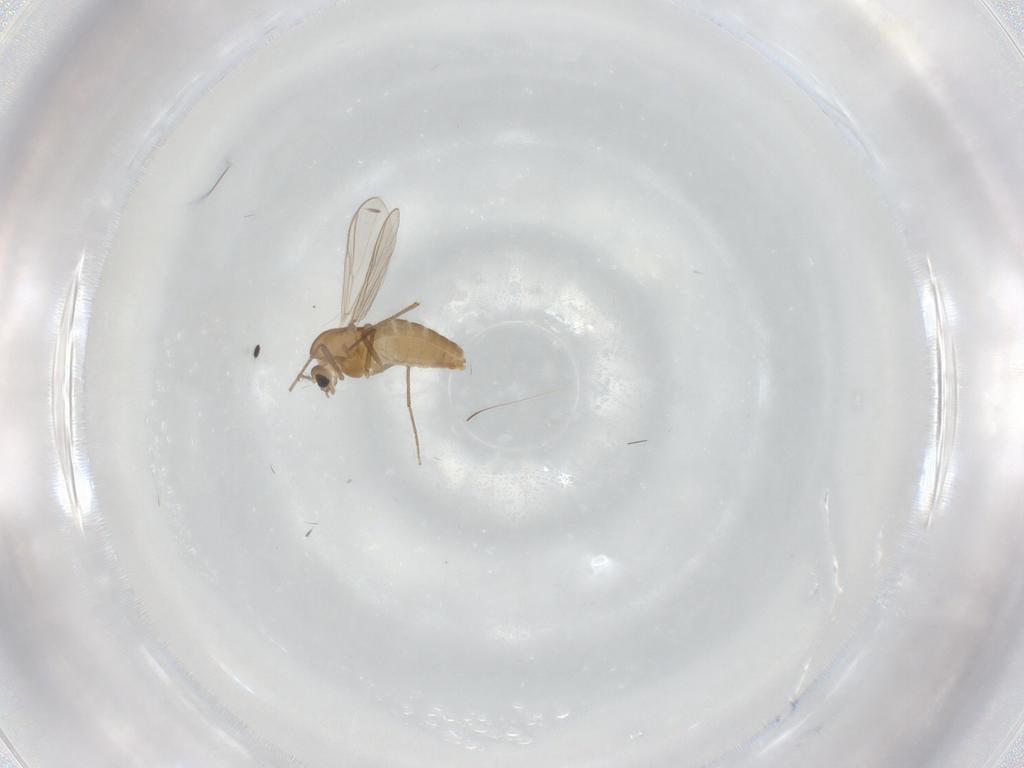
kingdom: Animalia
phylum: Arthropoda
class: Insecta
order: Diptera
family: Chironomidae
